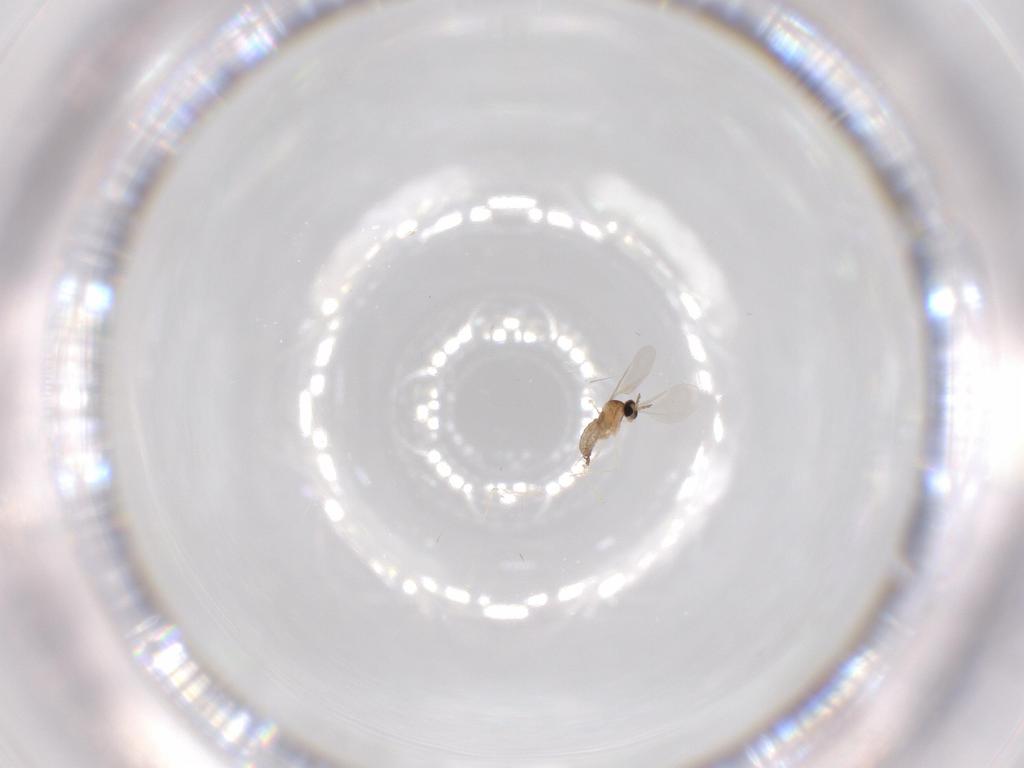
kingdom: Animalia
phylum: Arthropoda
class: Insecta
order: Diptera
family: Cecidomyiidae
